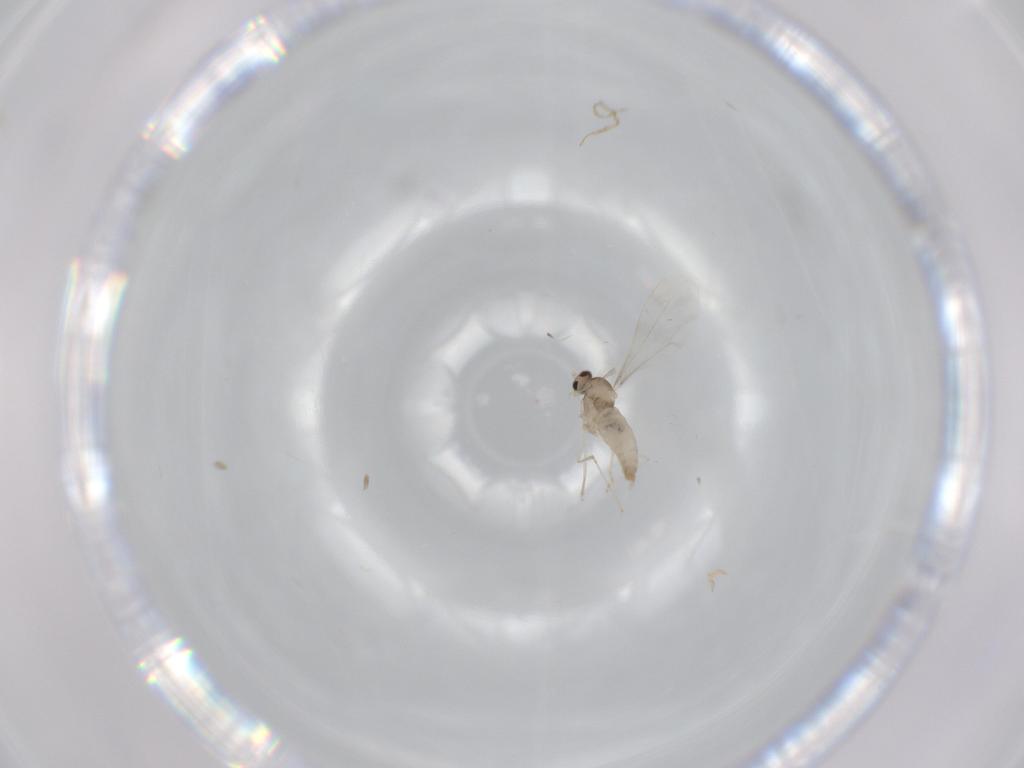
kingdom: Animalia
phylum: Arthropoda
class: Insecta
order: Diptera
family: Cecidomyiidae
